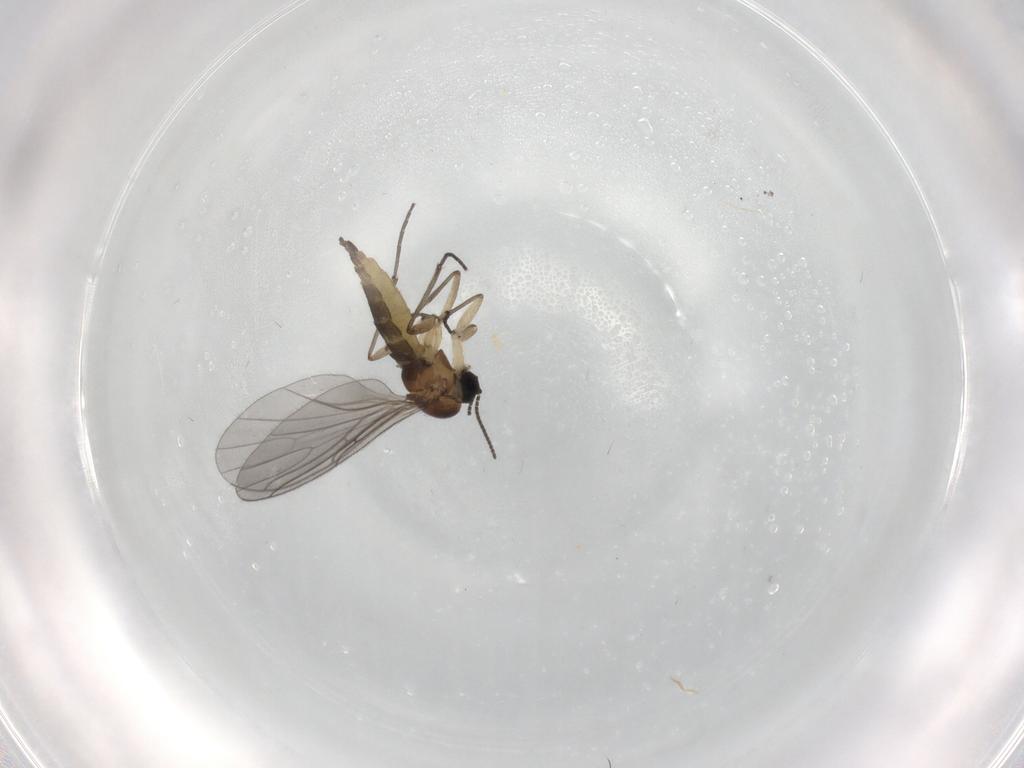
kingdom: Animalia
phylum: Arthropoda
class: Insecta
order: Diptera
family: Sciaridae
